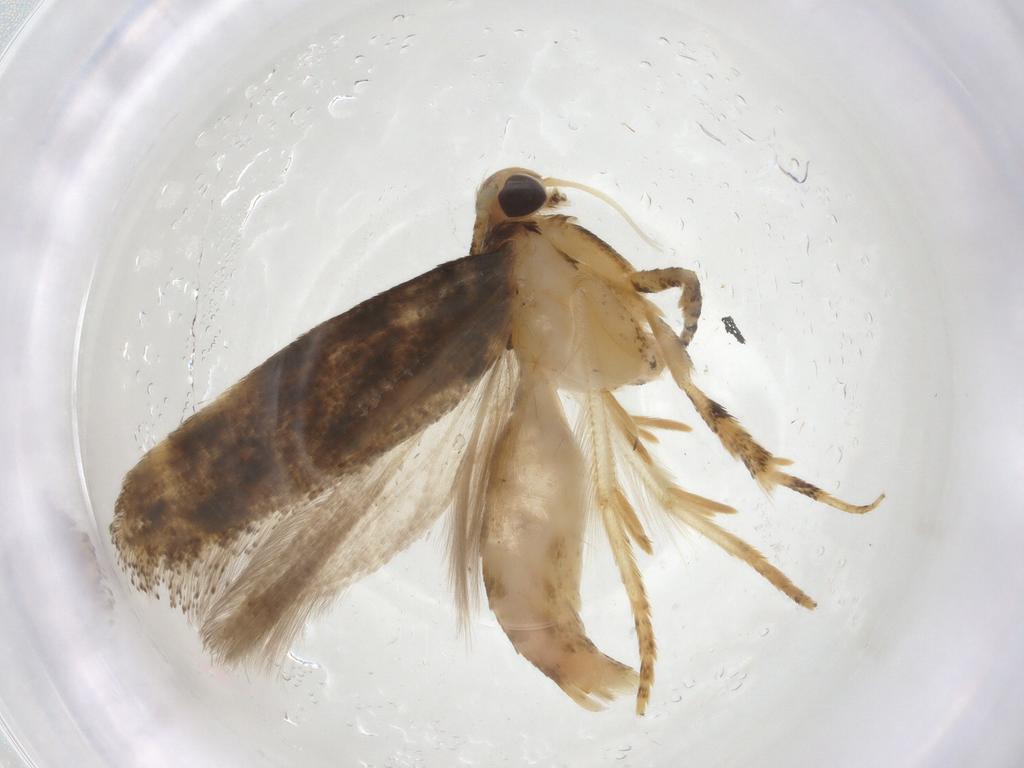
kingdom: Animalia
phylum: Arthropoda
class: Insecta
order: Lepidoptera
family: Gelechiidae
